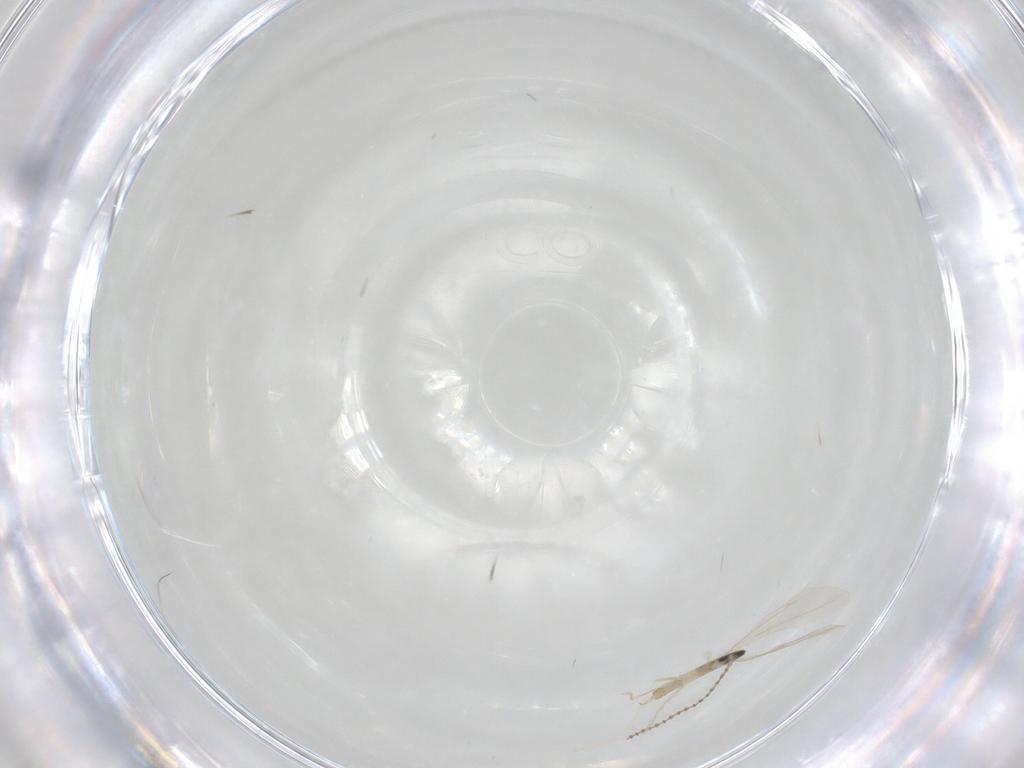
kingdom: Animalia
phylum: Arthropoda
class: Insecta
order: Diptera
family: Cecidomyiidae
